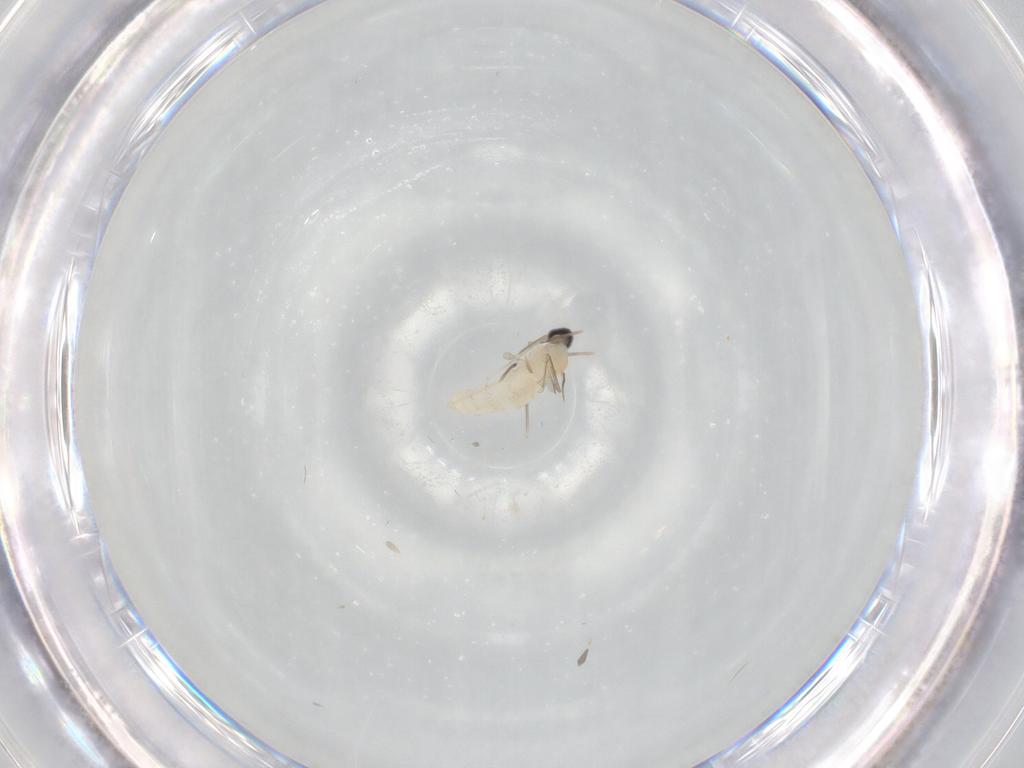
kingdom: Animalia
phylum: Arthropoda
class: Insecta
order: Diptera
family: Cecidomyiidae
